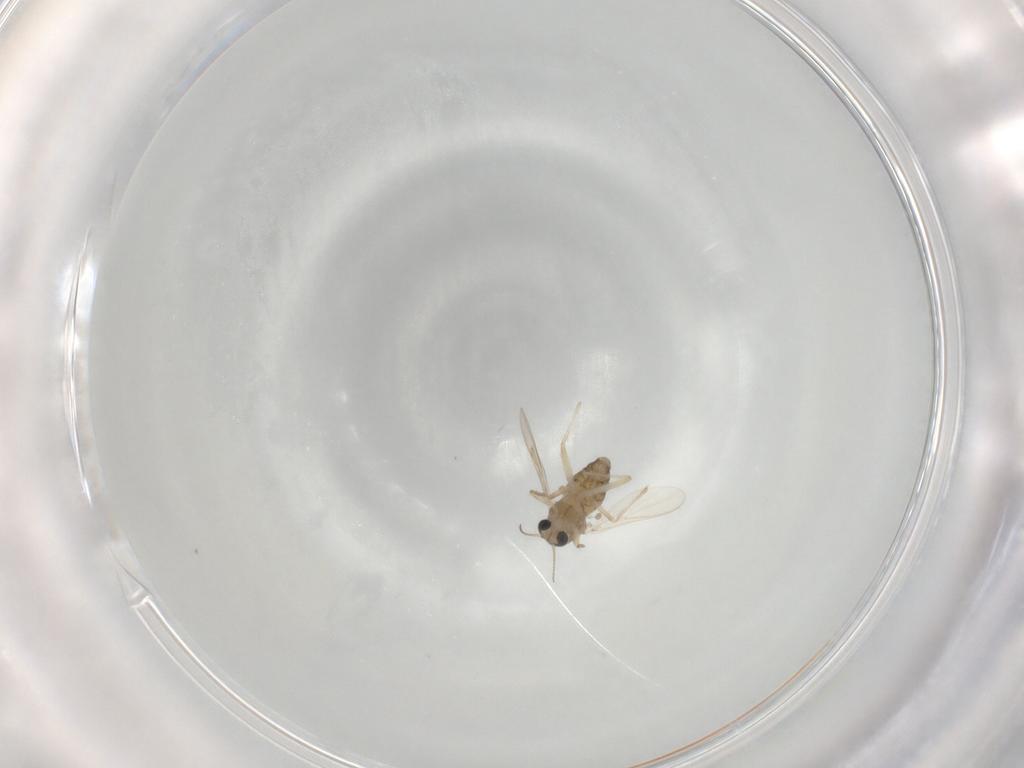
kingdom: Animalia
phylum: Arthropoda
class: Insecta
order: Diptera
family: Chironomidae
